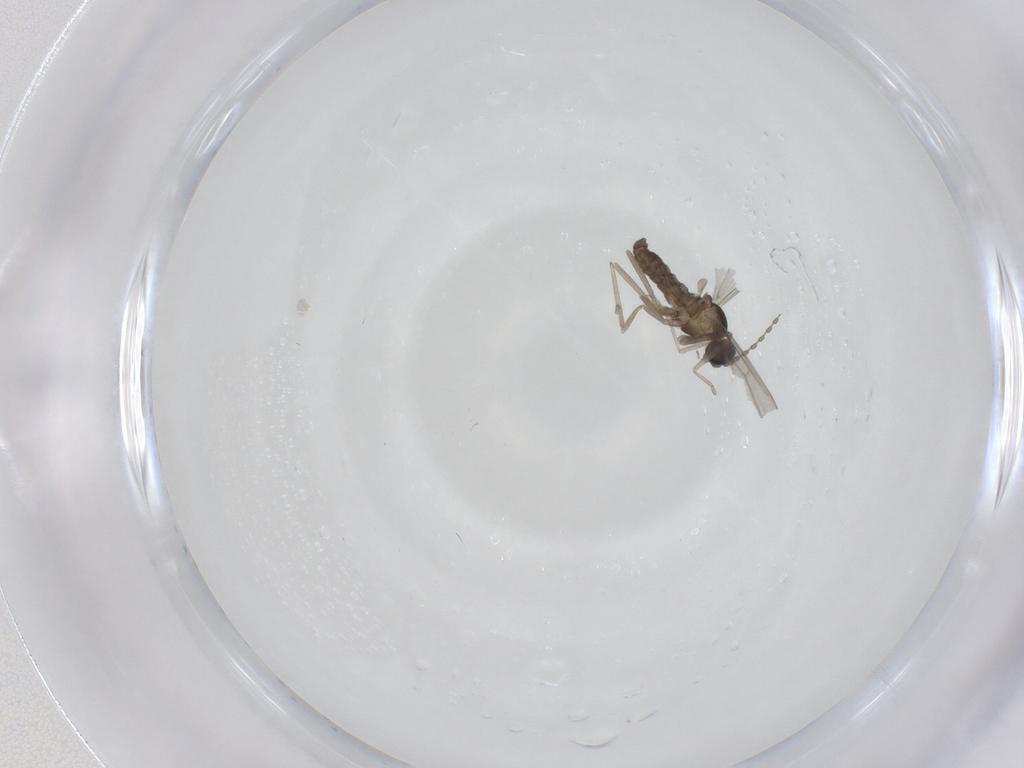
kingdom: Animalia
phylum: Arthropoda
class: Insecta
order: Diptera
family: Cecidomyiidae
